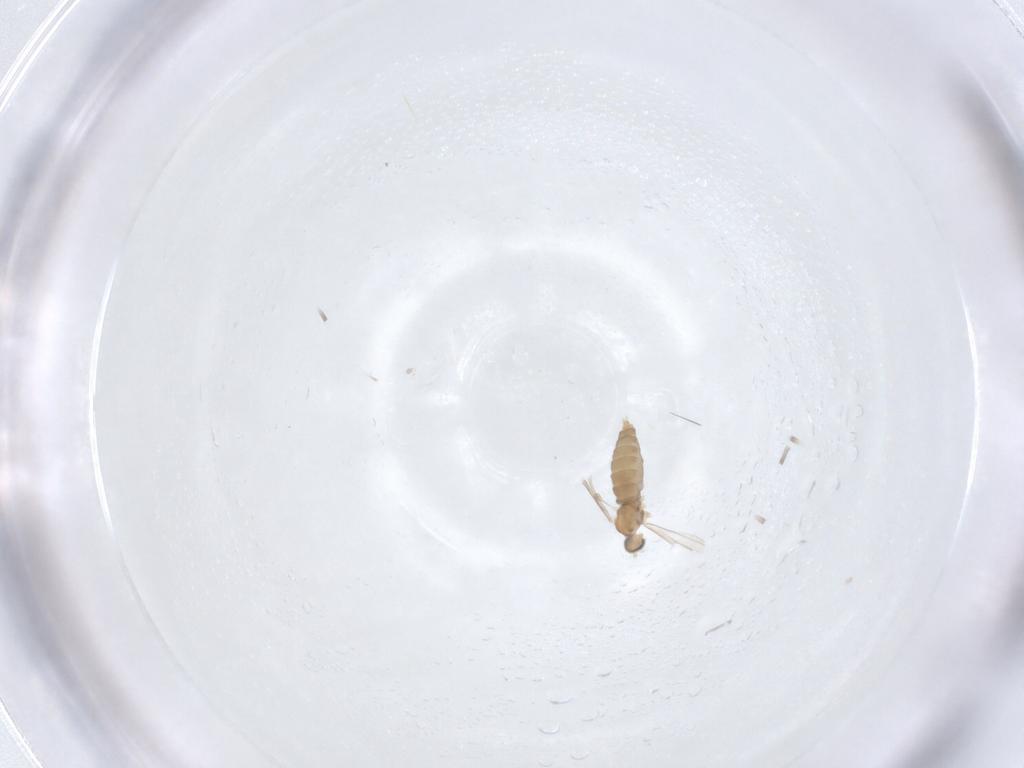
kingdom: Animalia
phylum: Arthropoda
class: Insecta
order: Diptera
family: Cecidomyiidae
